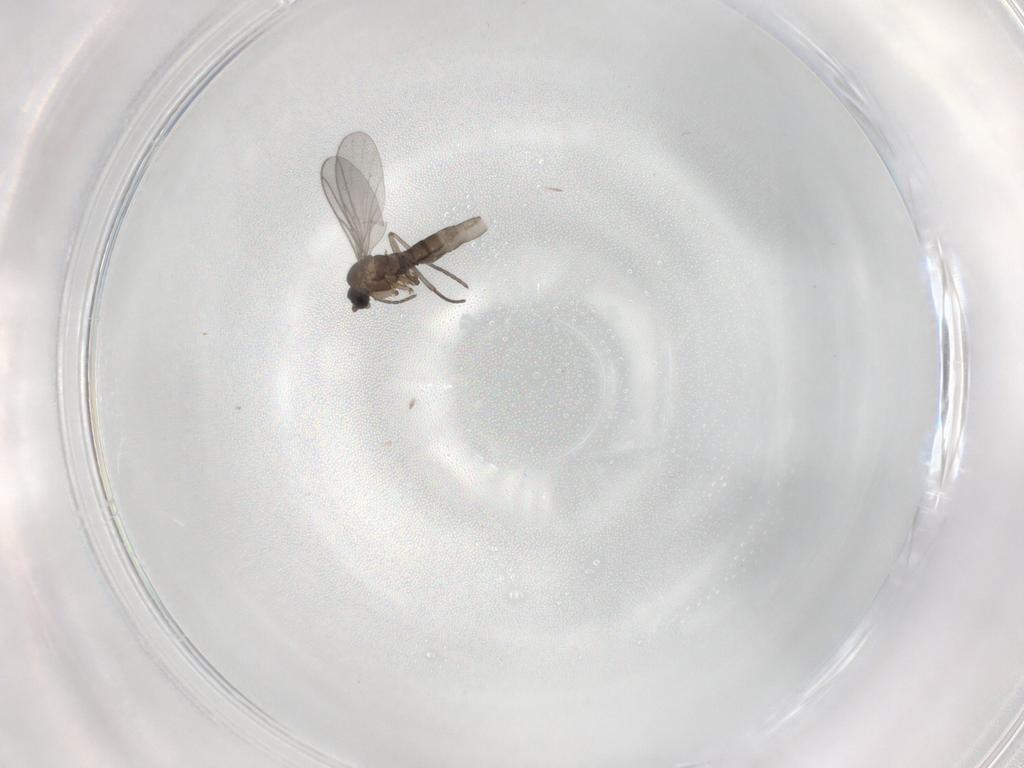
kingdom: Animalia
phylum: Arthropoda
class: Insecta
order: Diptera
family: Sciaridae
